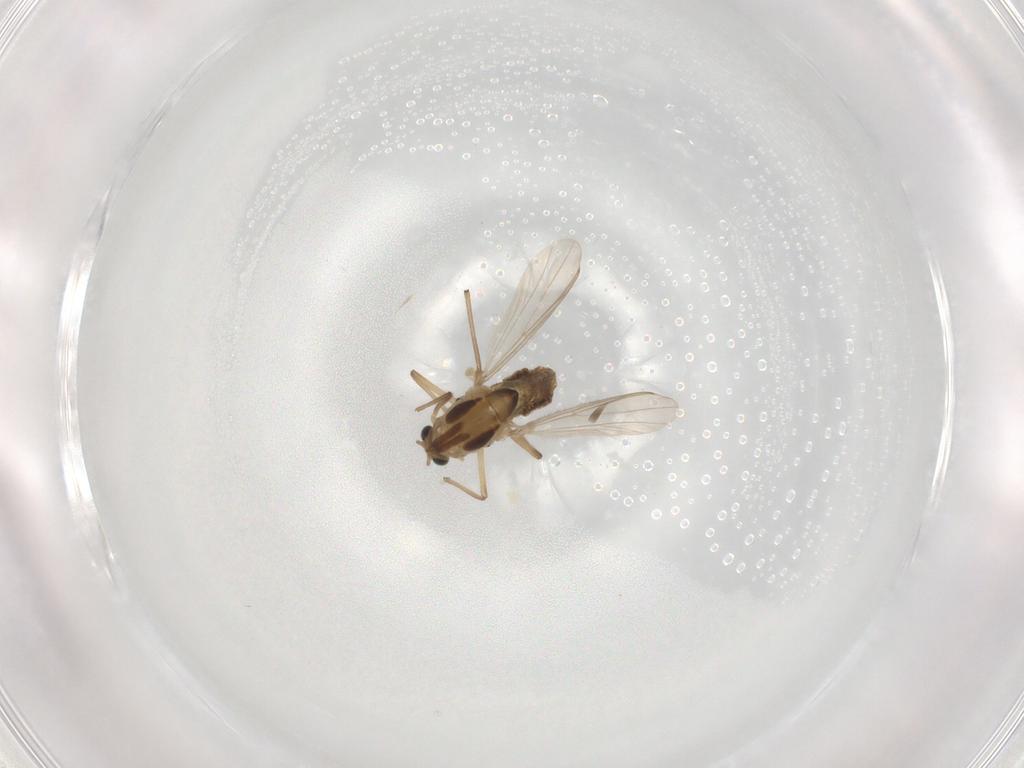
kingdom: Animalia
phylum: Arthropoda
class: Insecta
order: Diptera
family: Chironomidae
